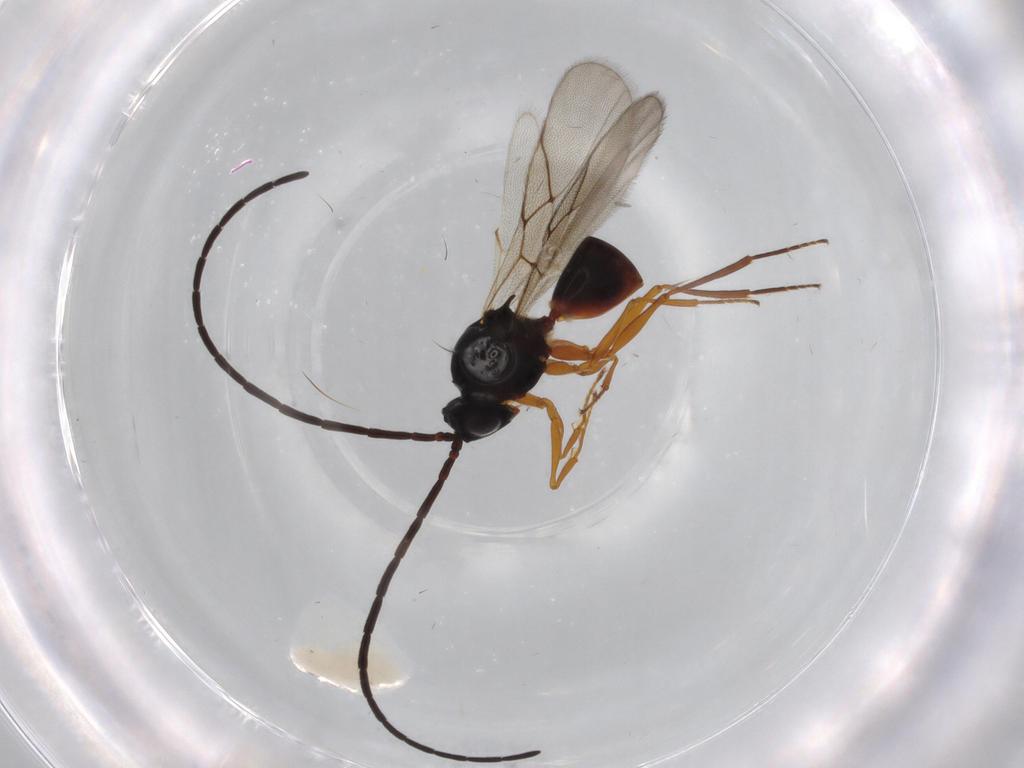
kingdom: Animalia
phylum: Arthropoda
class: Insecta
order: Hymenoptera
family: Figitidae
